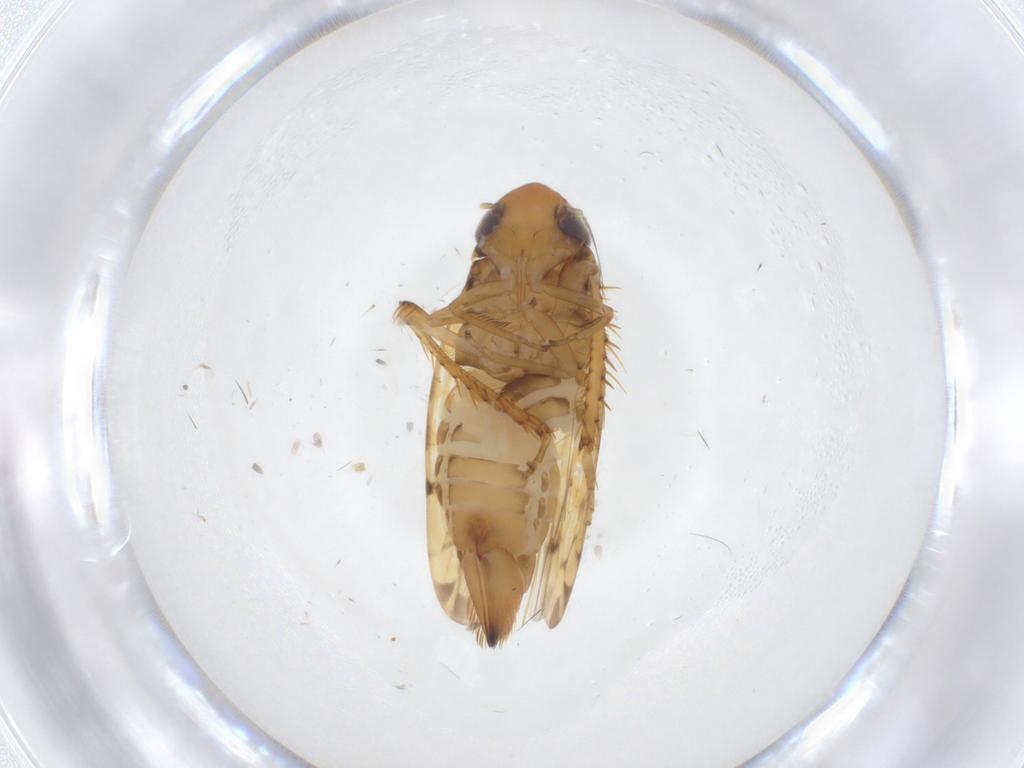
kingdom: Animalia
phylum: Arthropoda
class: Insecta
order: Hemiptera
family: Cicadellidae
